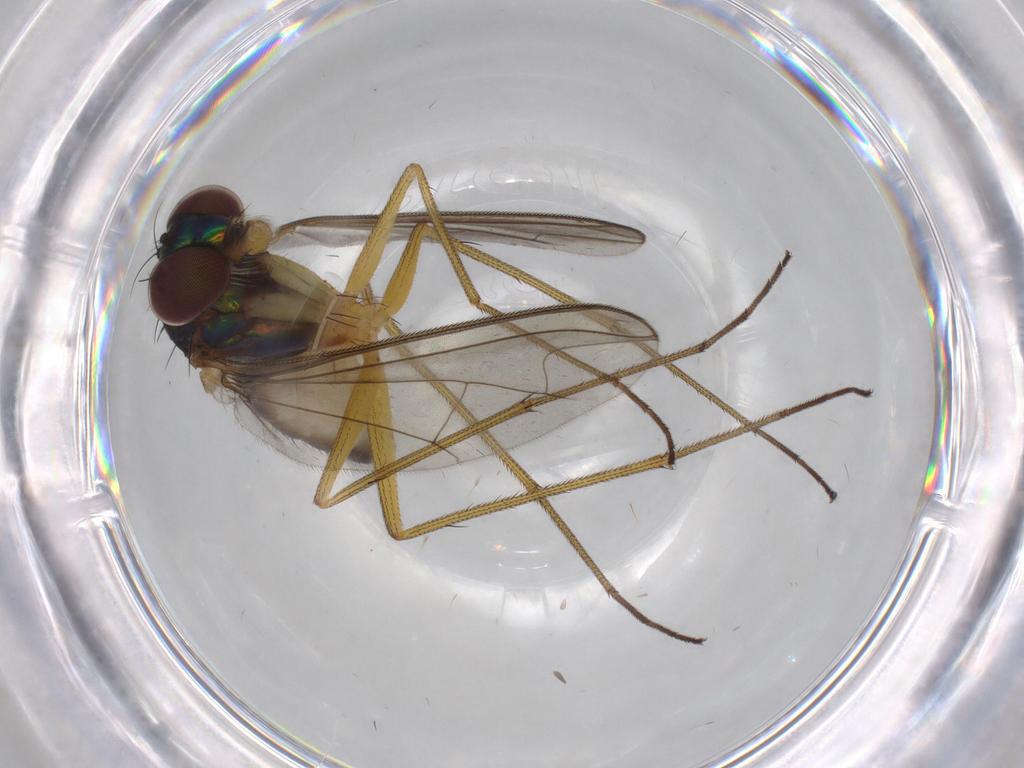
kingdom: Animalia
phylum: Arthropoda
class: Insecta
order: Diptera
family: Dolichopodidae
